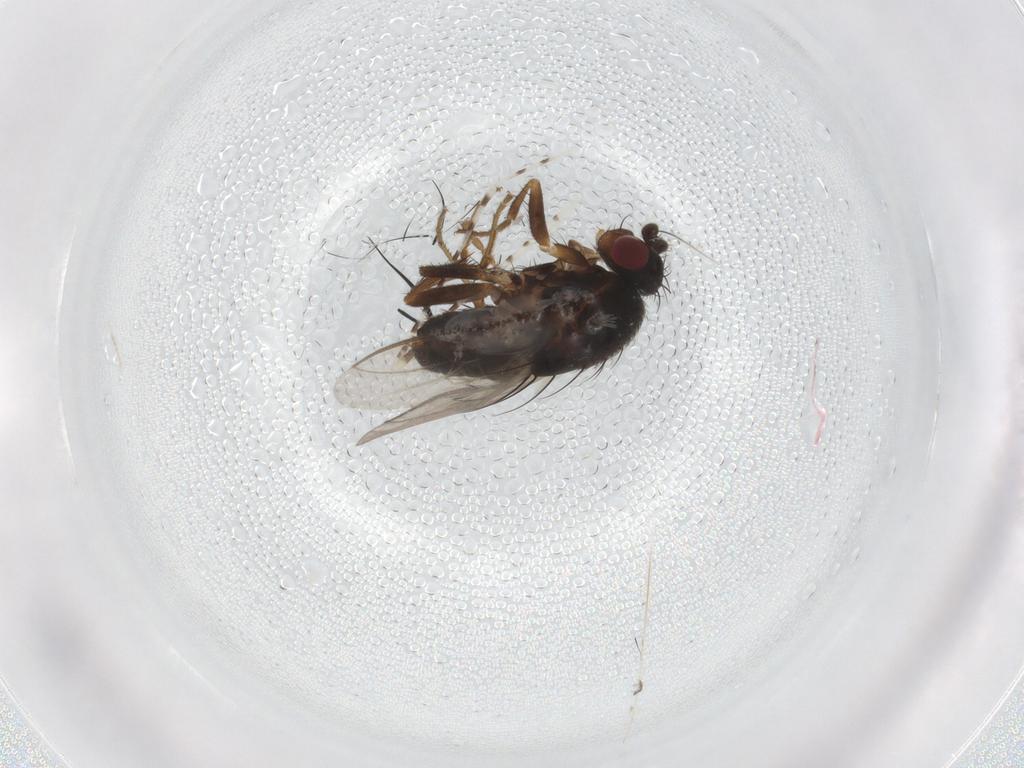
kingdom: Animalia
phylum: Arthropoda
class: Insecta
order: Diptera
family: Sphaeroceridae
